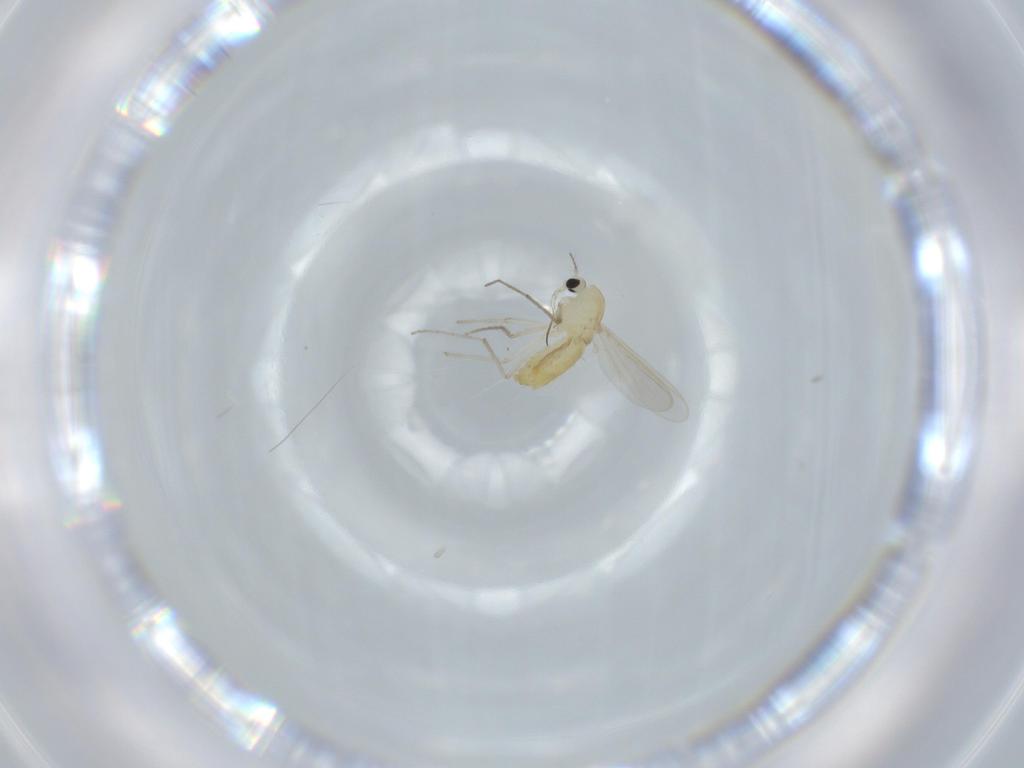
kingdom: Animalia
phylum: Arthropoda
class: Insecta
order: Diptera
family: Chironomidae
